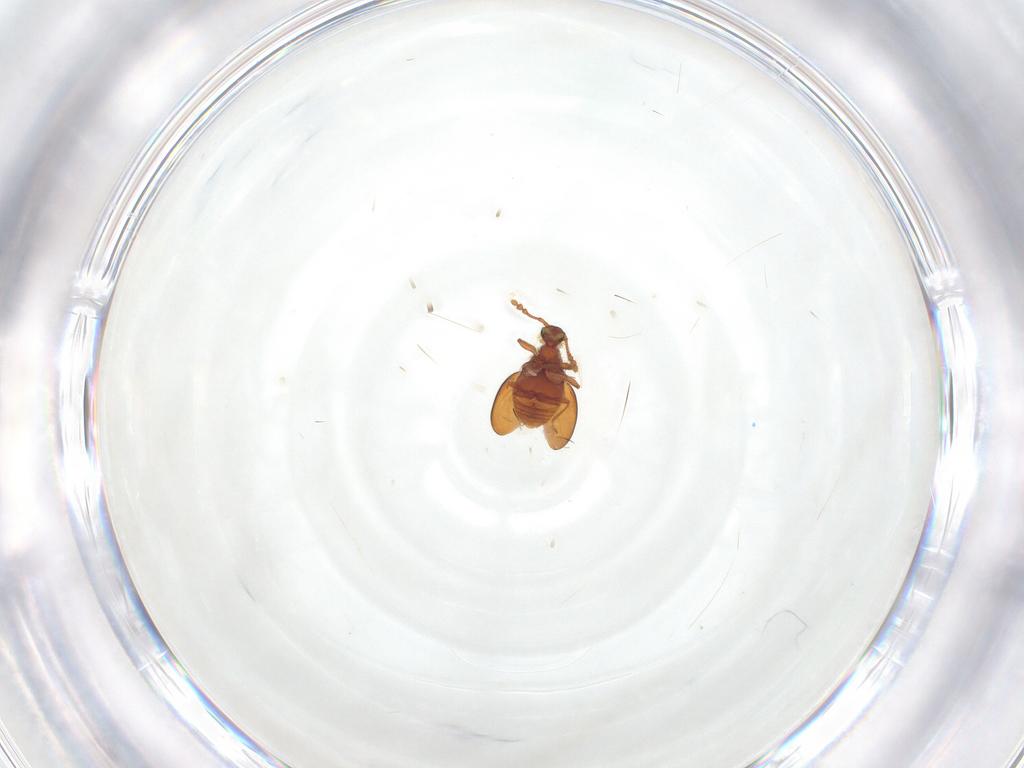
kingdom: Animalia
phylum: Arthropoda
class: Insecta
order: Coleoptera
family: Staphylinidae
